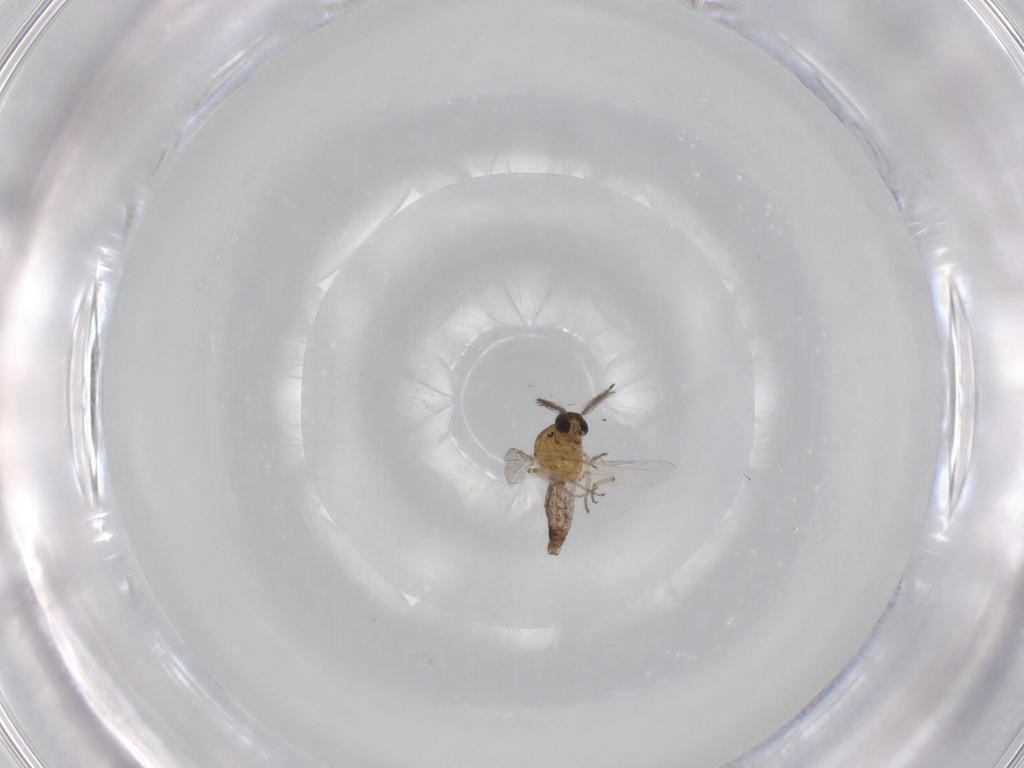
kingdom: Animalia
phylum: Arthropoda
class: Insecta
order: Diptera
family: Ceratopogonidae
